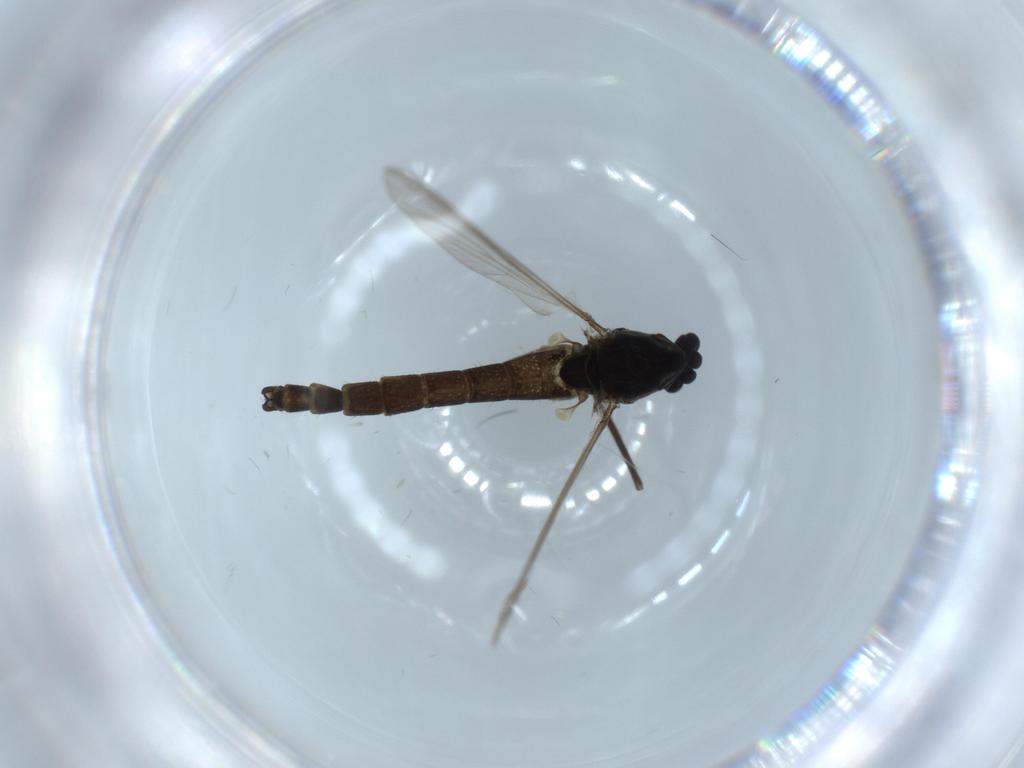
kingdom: Animalia
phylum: Arthropoda
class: Insecta
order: Diptera
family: Chironomidae
